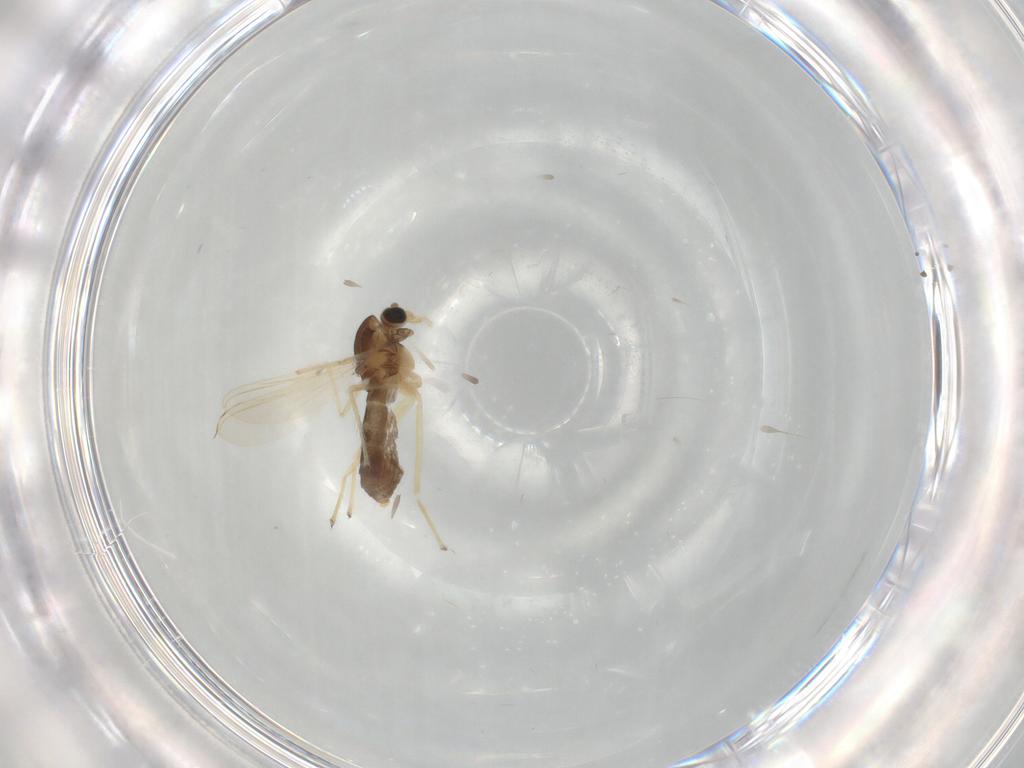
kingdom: Animalia
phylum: Arthropoda
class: Insecta
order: Diptera
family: Chironomidae
